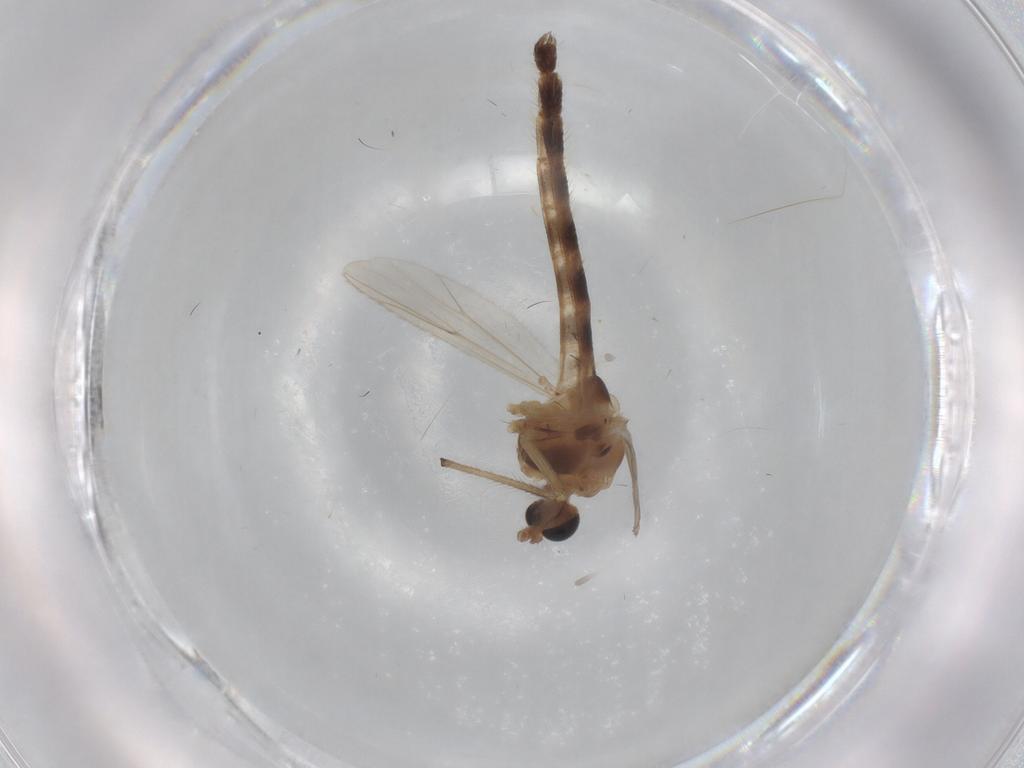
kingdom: Animalia
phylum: Arthropoda
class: Insecta
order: Diptera
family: Chironomidae
